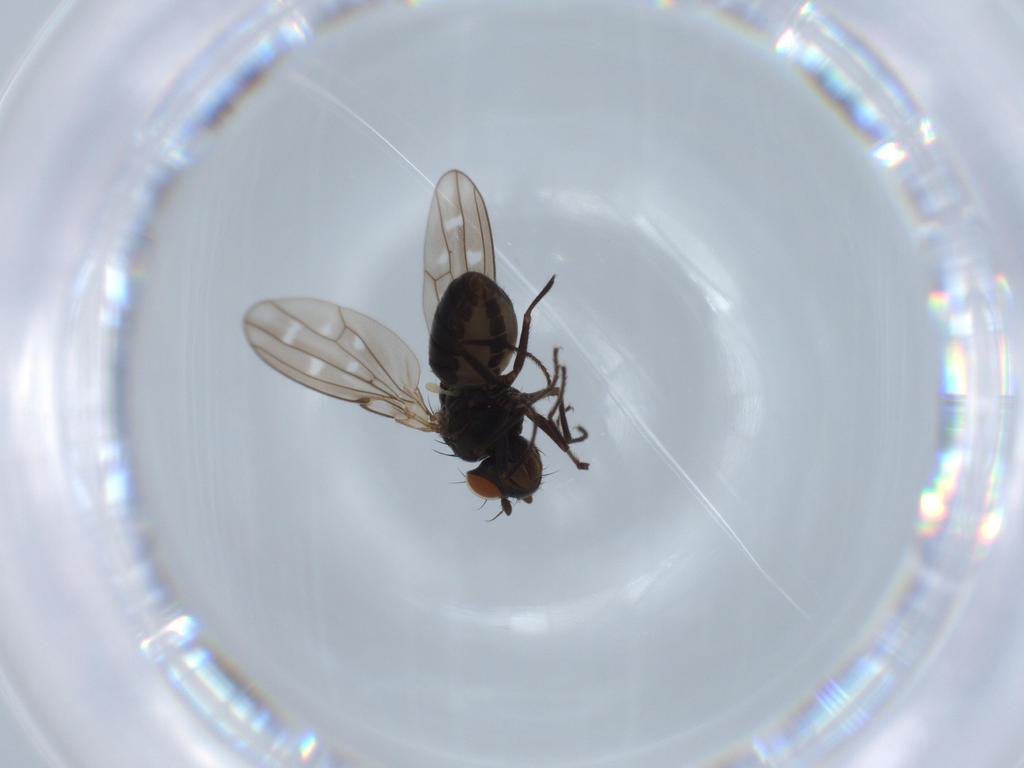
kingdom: Animalia
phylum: Arthropoda
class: Insecta
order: Diptera
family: Ephydridae
